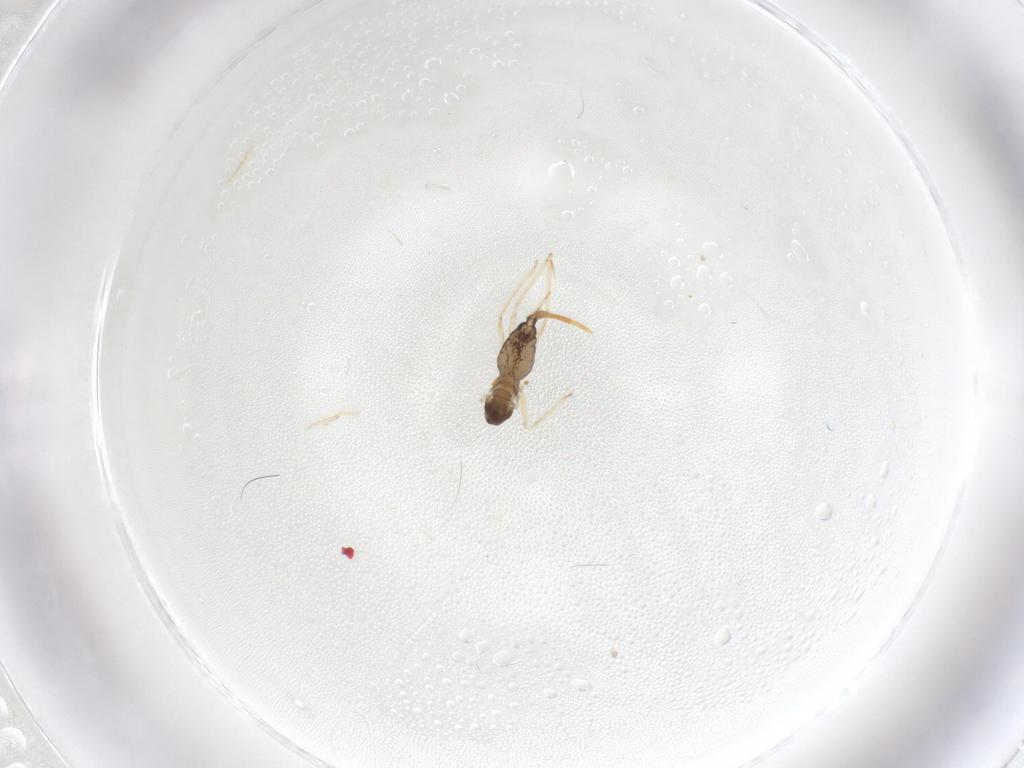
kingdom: Animalia
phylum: Arthropoda
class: Insecta
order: Diptera
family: Cecidomyiidae
